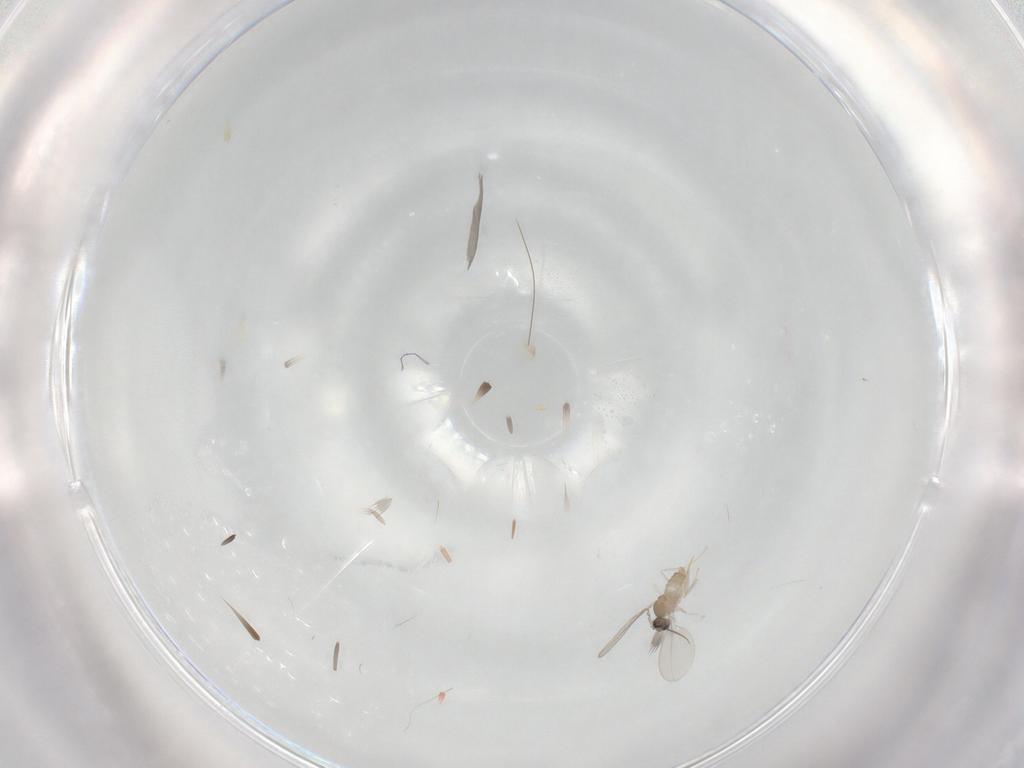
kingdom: Animalia
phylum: Arthropoda
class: Insecta
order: Diptera
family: Cecidomyiidae
